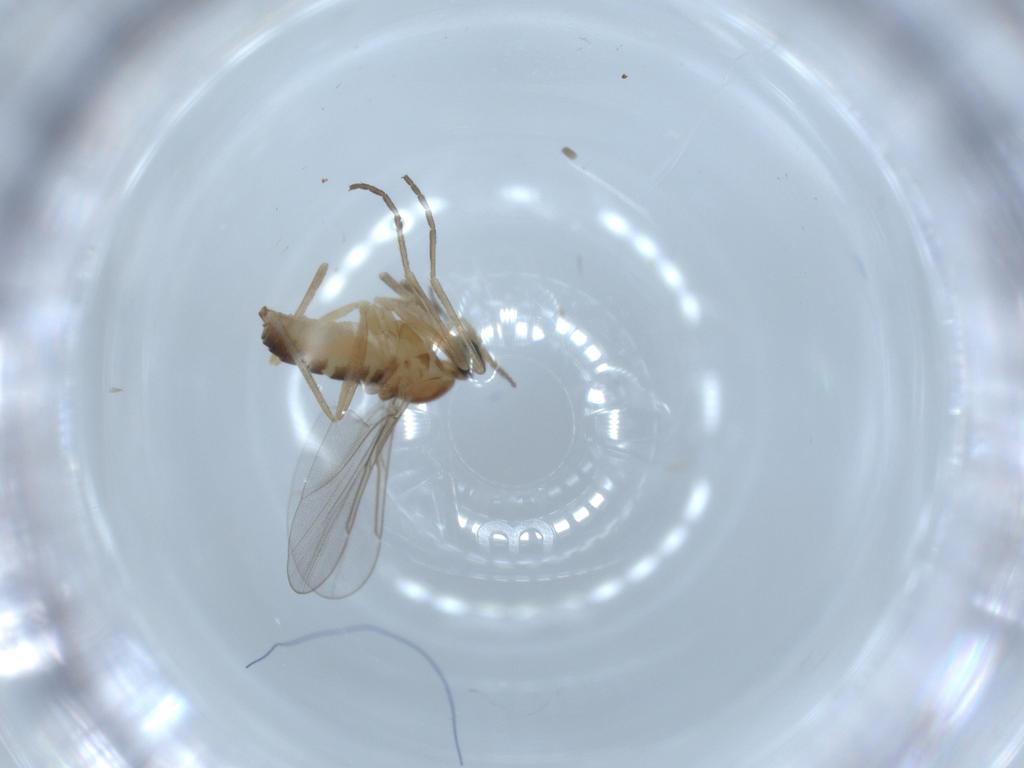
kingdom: Animalia
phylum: Arthropoda
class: Insecta
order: Diptera
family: Cecidomyiidae
